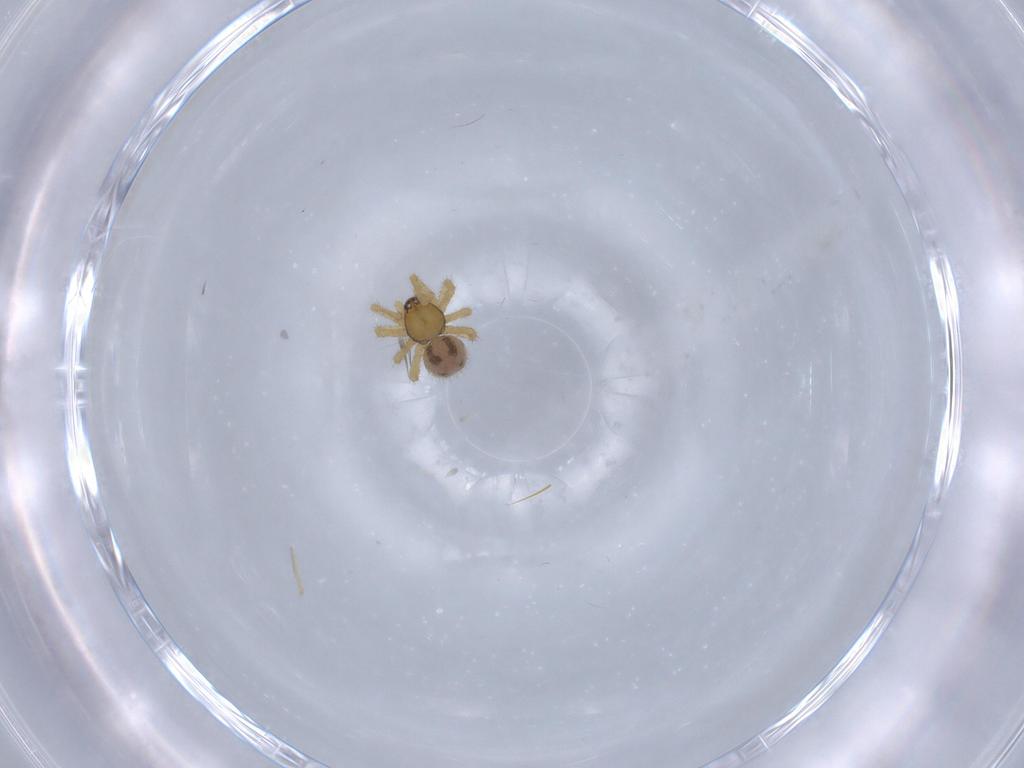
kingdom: Animalia
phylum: Arthropoda
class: Arachnida
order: Araneae
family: Theridiidae
